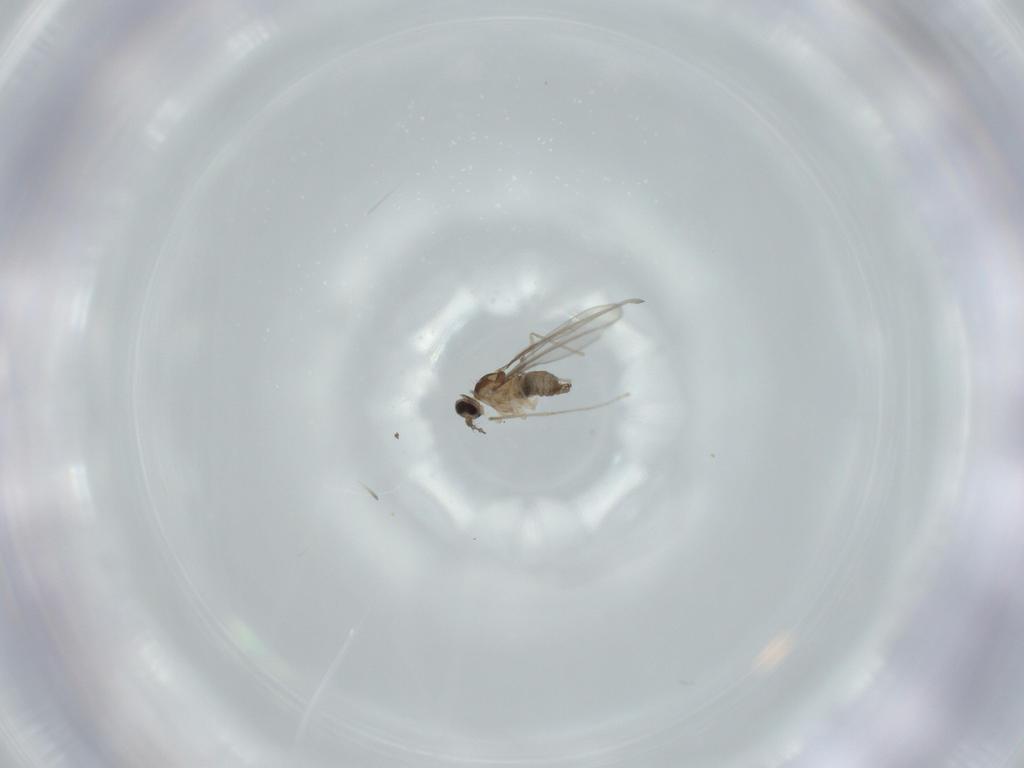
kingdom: Animalia
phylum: Arthropoda
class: Insecta
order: Diptera
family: Cecidomyiidae
